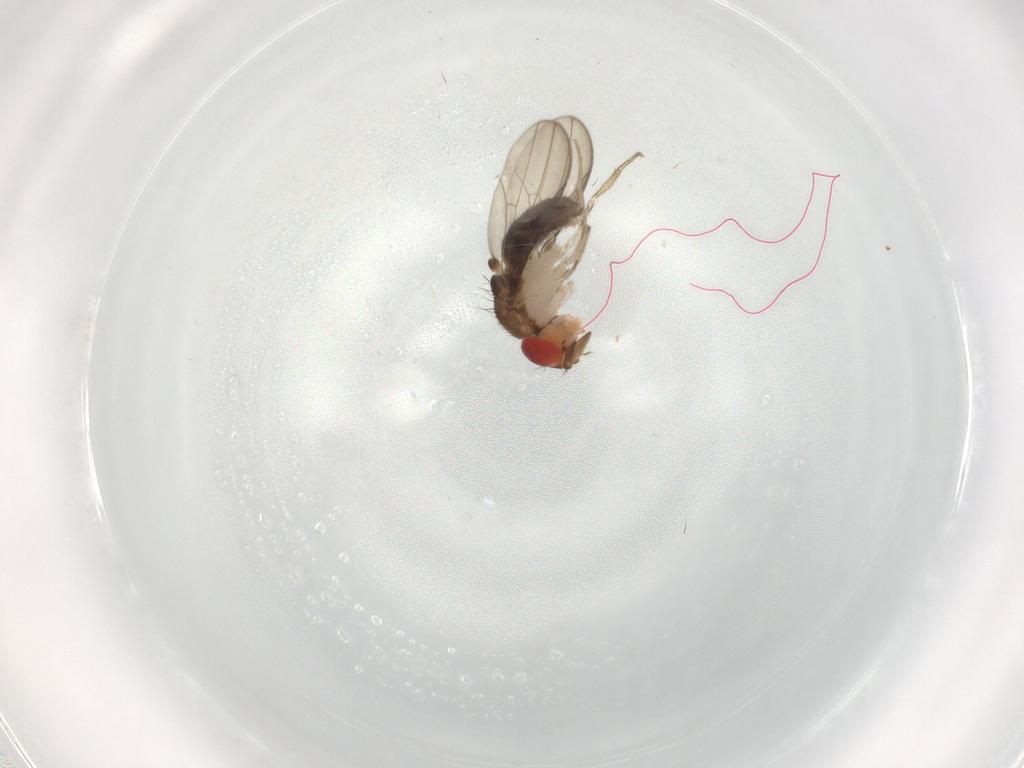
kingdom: Animalia
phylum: Arthropoda
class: Insecta
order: Diptera
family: Drosophilidae
